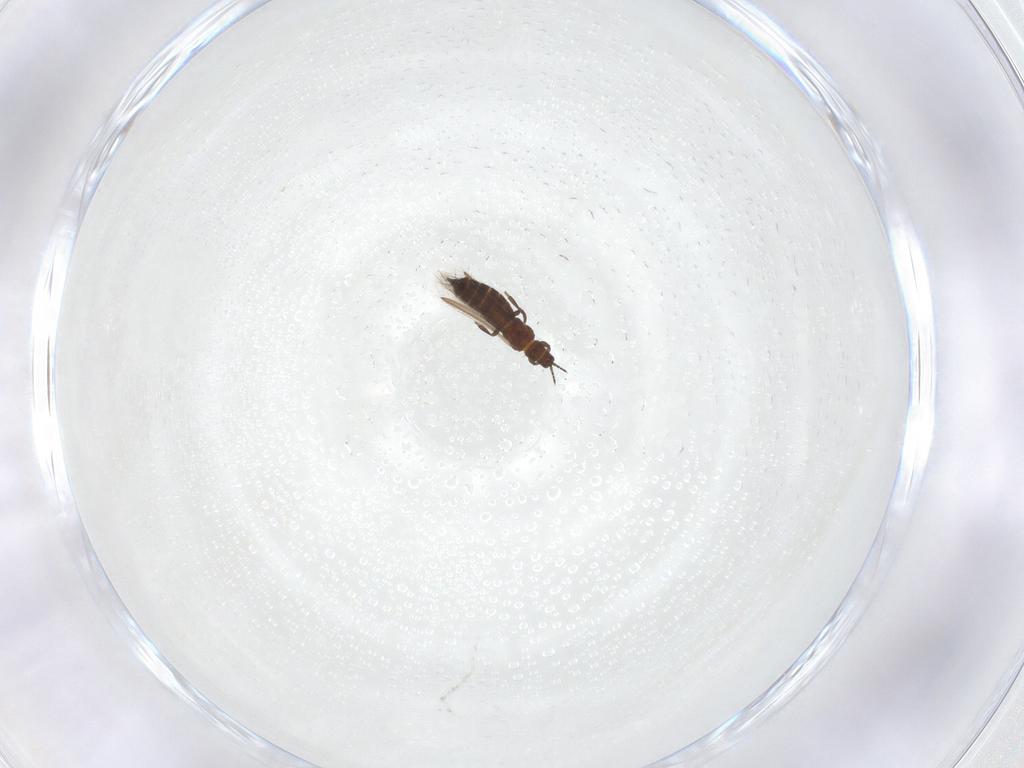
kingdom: Animalia
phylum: Arthropoda
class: Insecta
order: Thysanoptera
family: Thripidae
